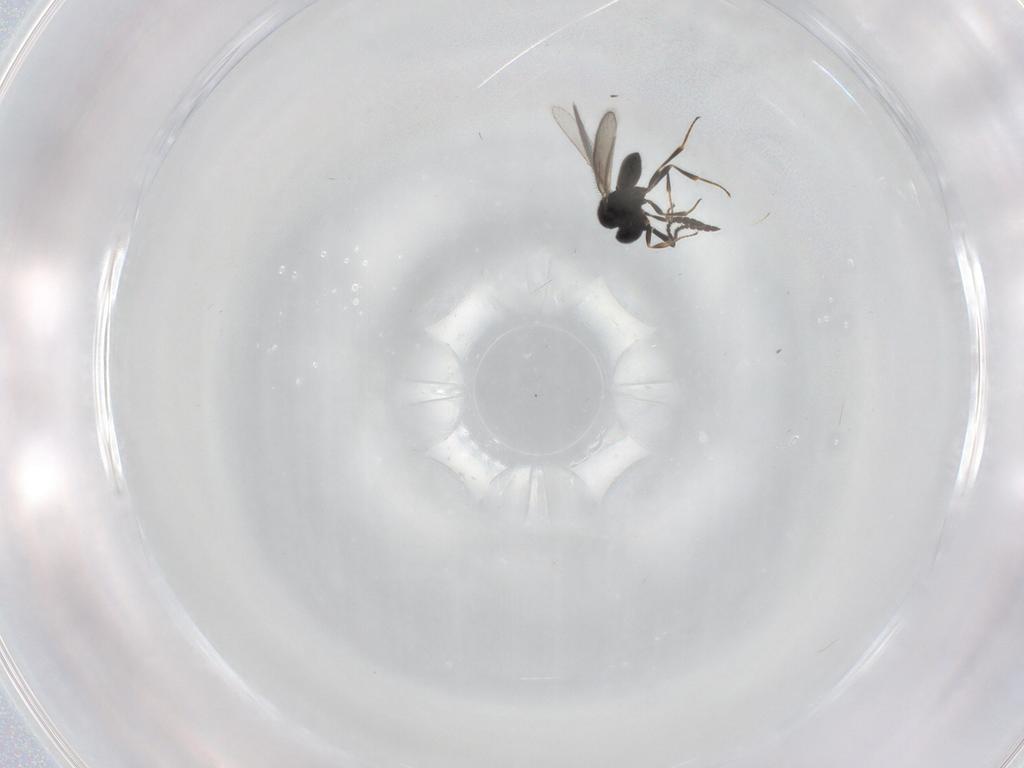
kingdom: Animalia
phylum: Arthropoda
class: Insecta
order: Hymenoptera
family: Scelionidae
